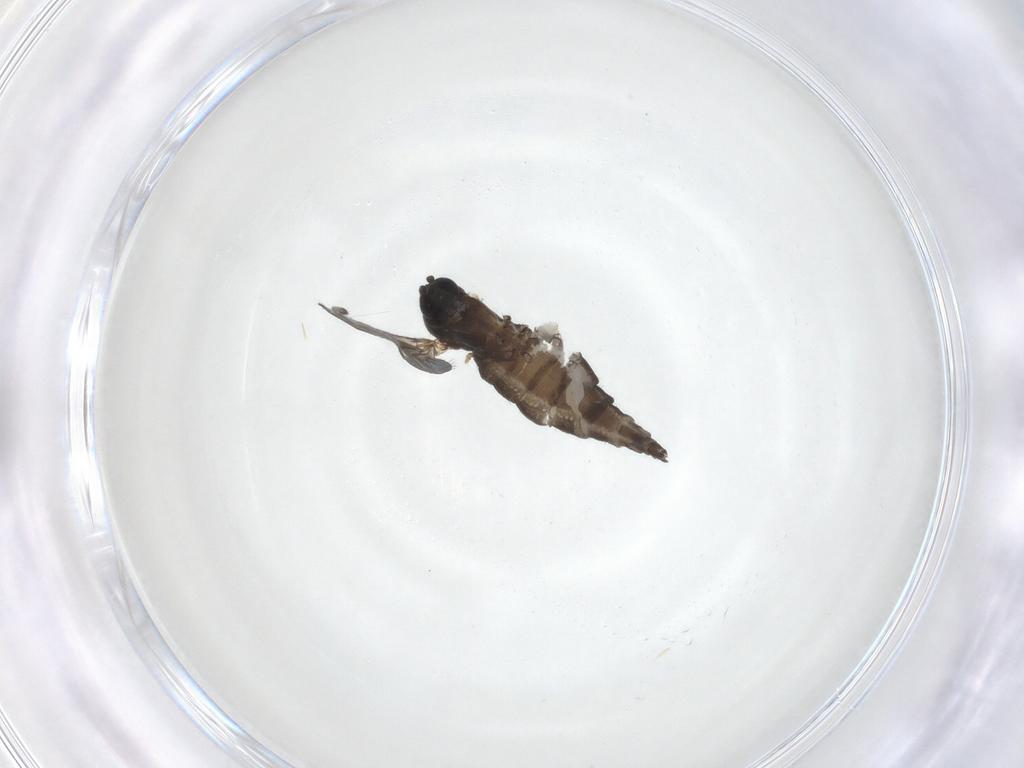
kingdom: Animalia
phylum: Arthropoda
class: Insecta
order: Diptera
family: Sciaridae
